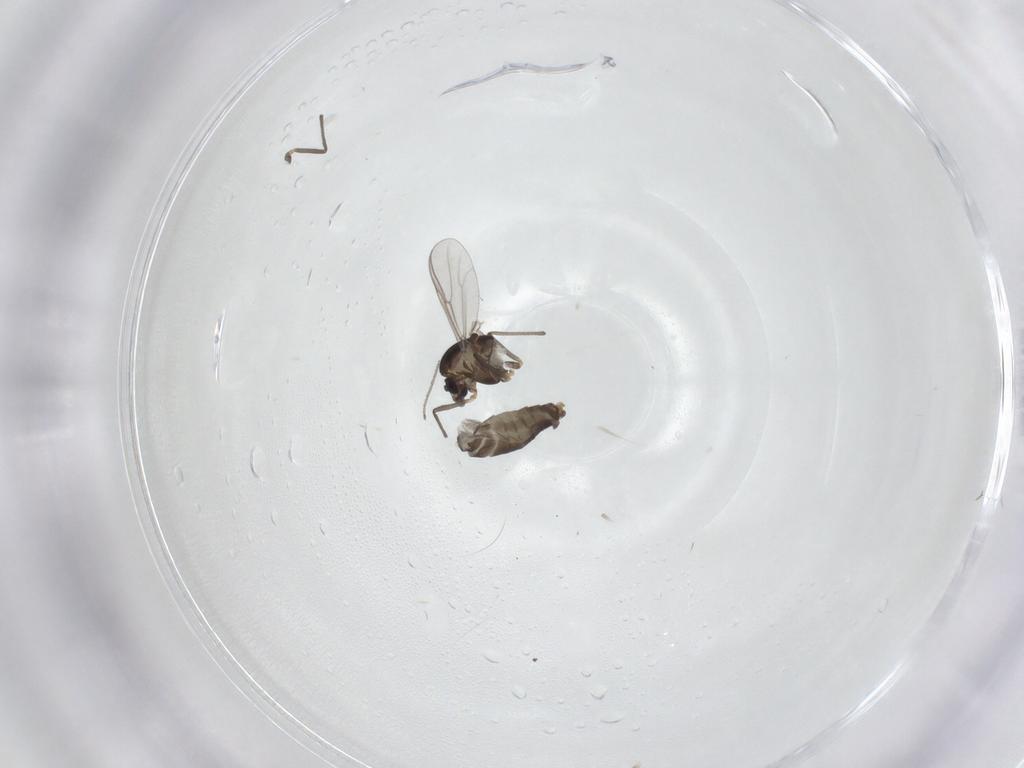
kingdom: Animalia
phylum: Arthropoda
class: Insecta
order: Diptera
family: Chironomidae
